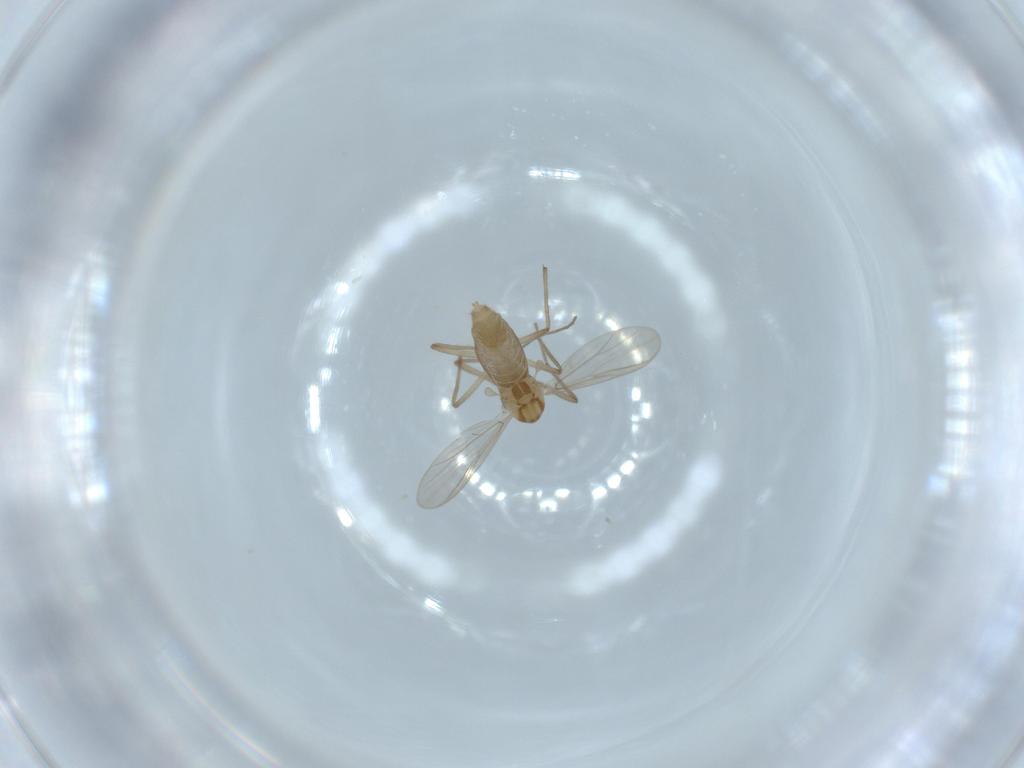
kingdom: Animalia
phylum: Arthropoda
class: Insecta
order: Diptera
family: Chironomidae
